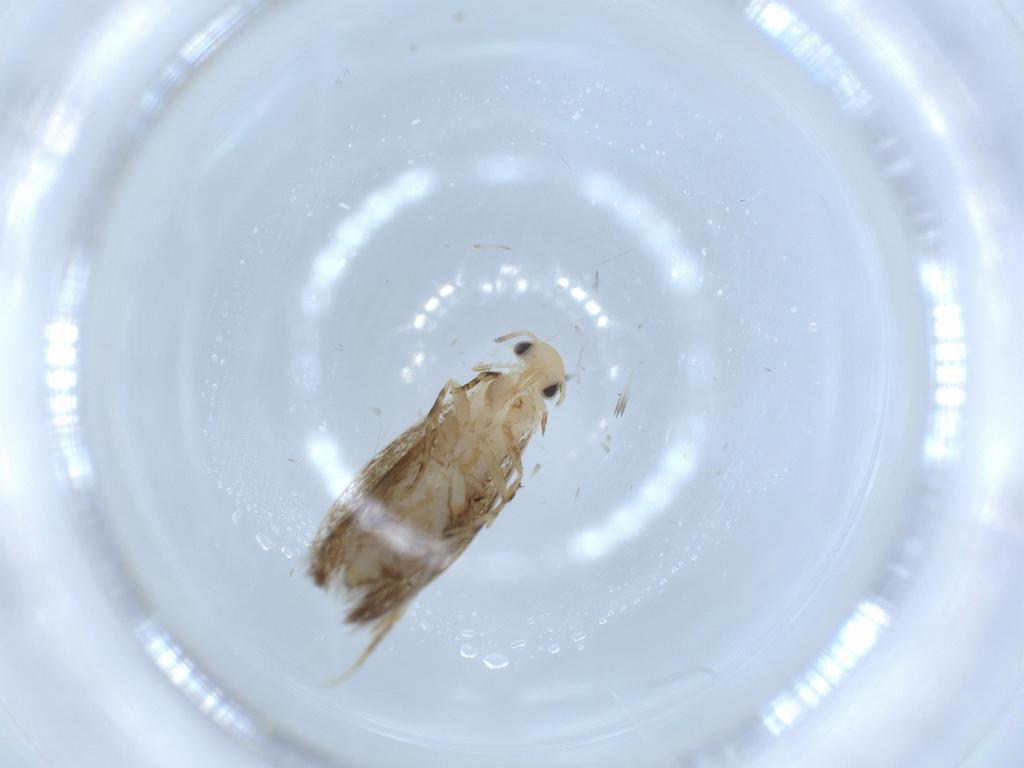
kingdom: Animalia
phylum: Arthropoda
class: Insecta
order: Lepidoptera
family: Tineidae
